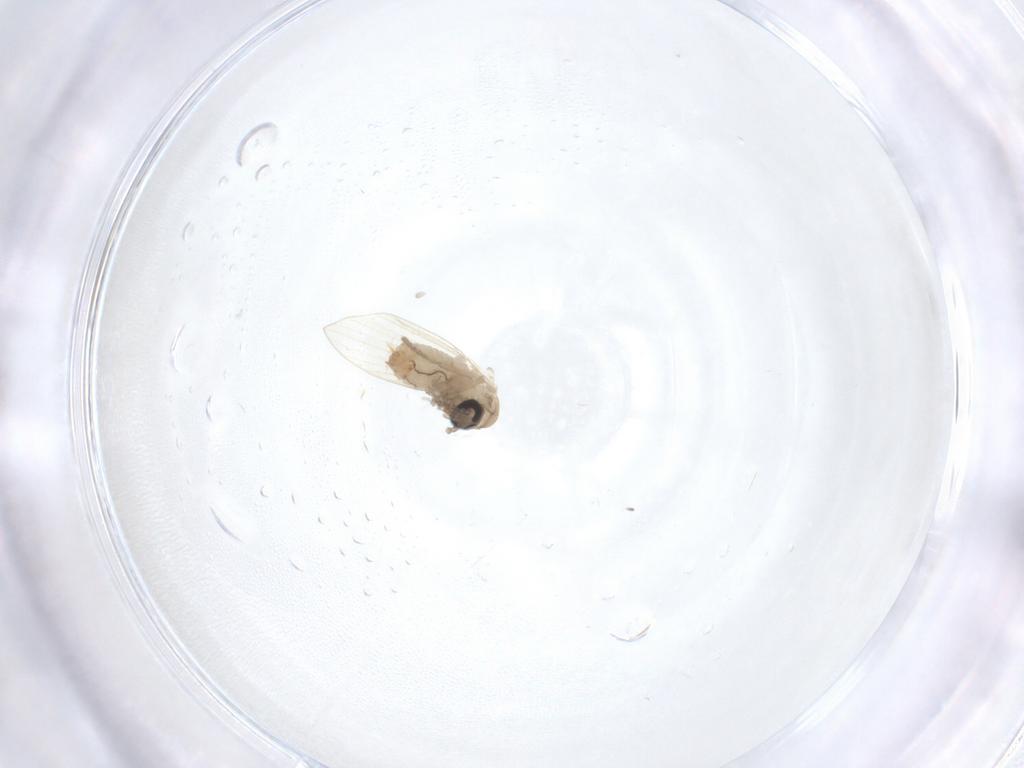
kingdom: Animalia
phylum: Arthropoda
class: Insecta
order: Diptera
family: Psychodidae
